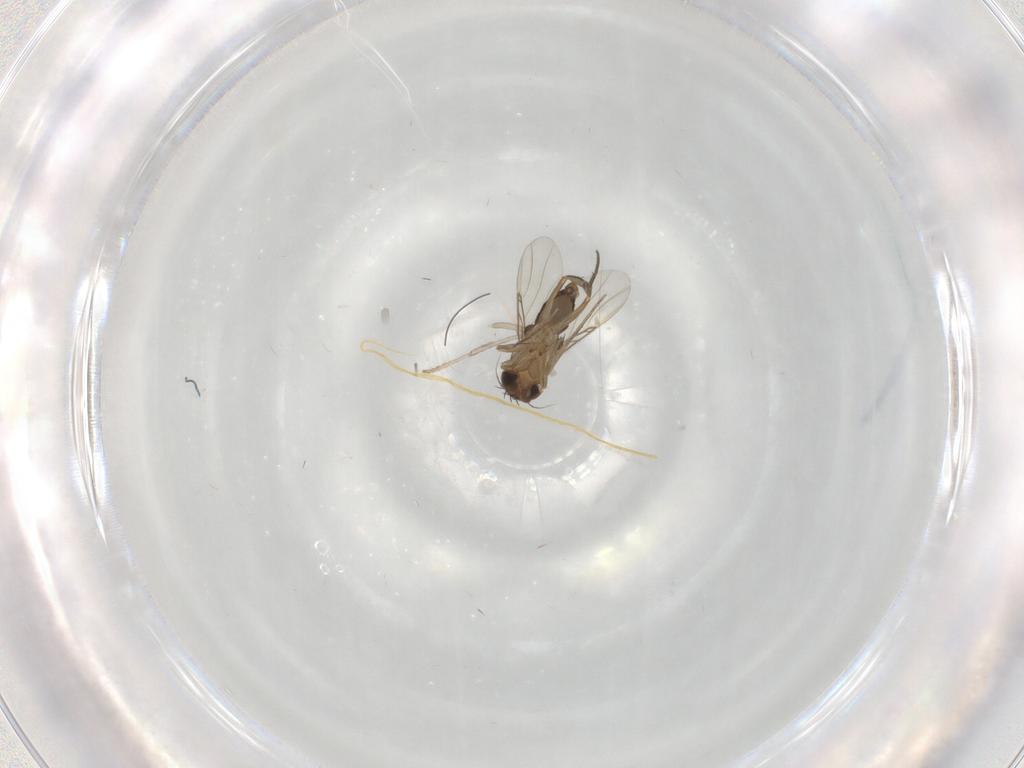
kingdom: Animalia
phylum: Arthropoda
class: Insecta
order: Diptera
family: Phoridae
